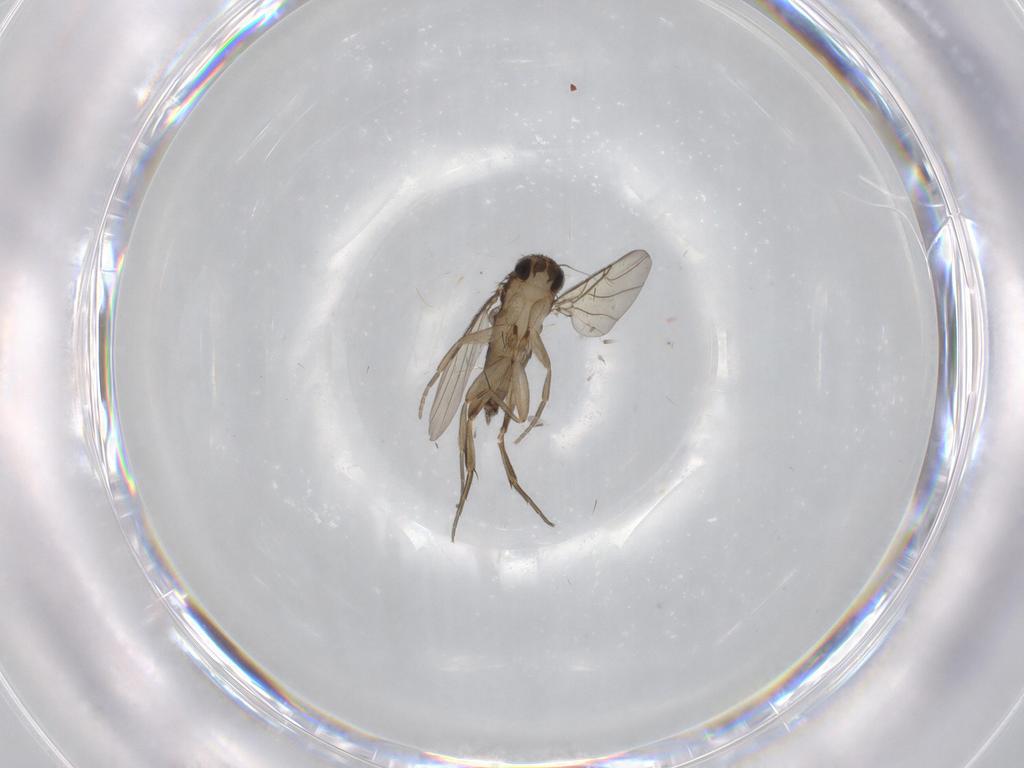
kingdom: Animalia
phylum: Arthropoda
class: Insecta
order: Diptera
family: Phoridae
